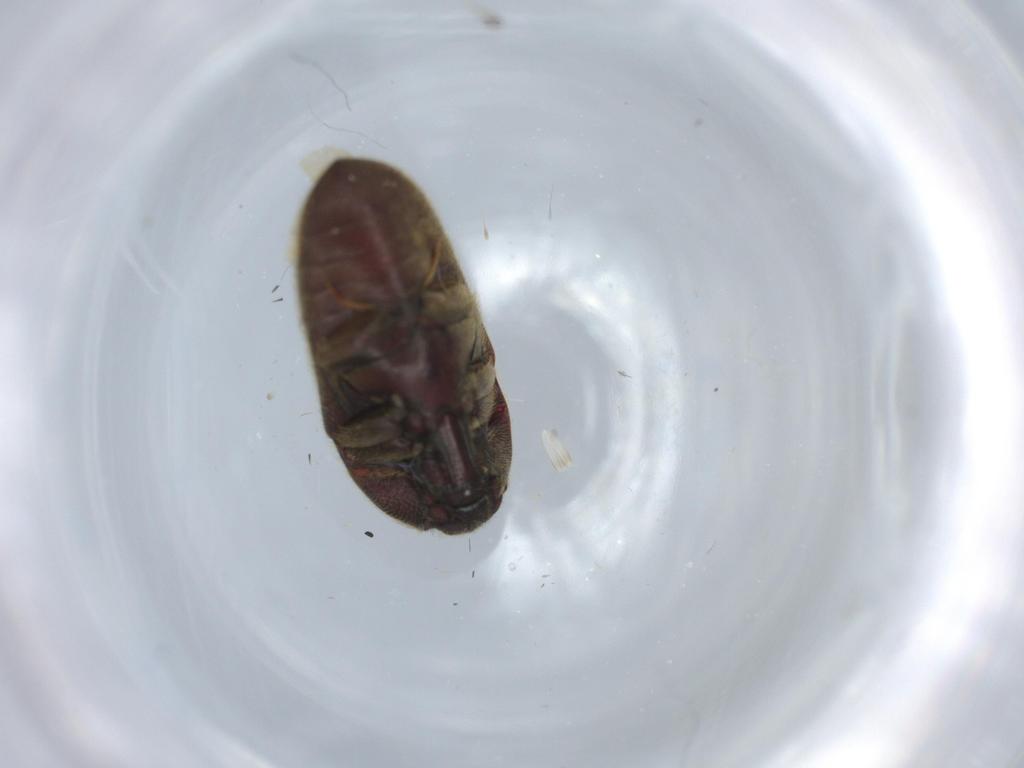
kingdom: Animalia
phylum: Arthropoda
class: Insecta
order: Coleoptera
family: Throscidae
